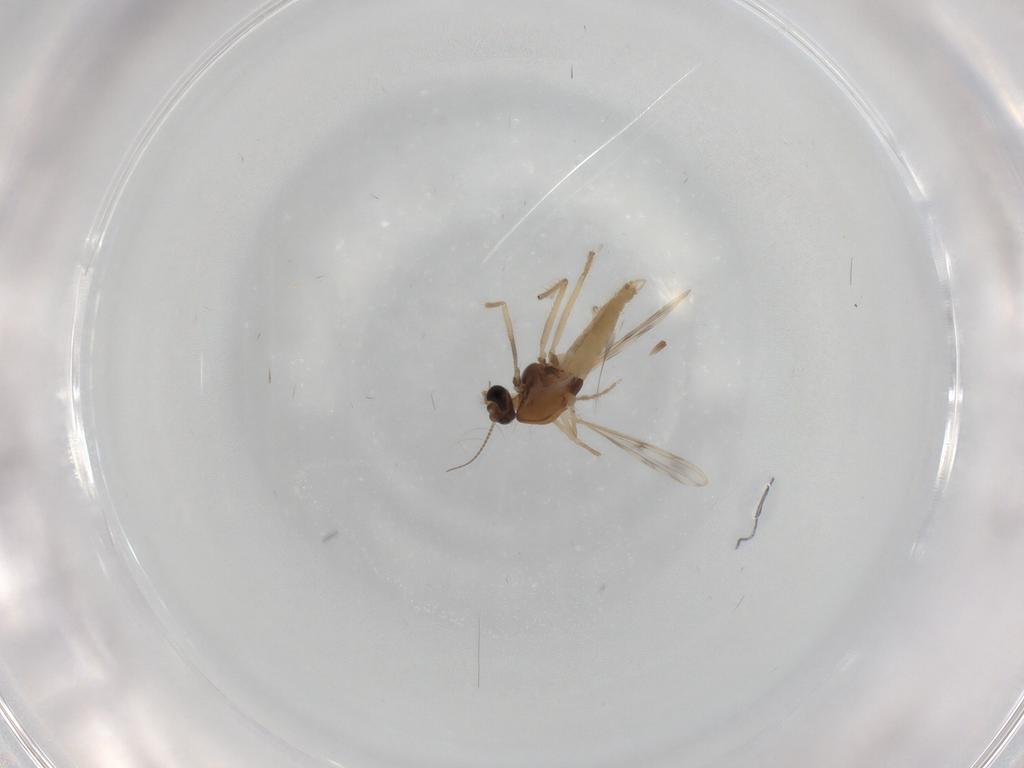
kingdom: Animalia
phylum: Arthropoda
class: Insecta
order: Diptera
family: Chironomidae
